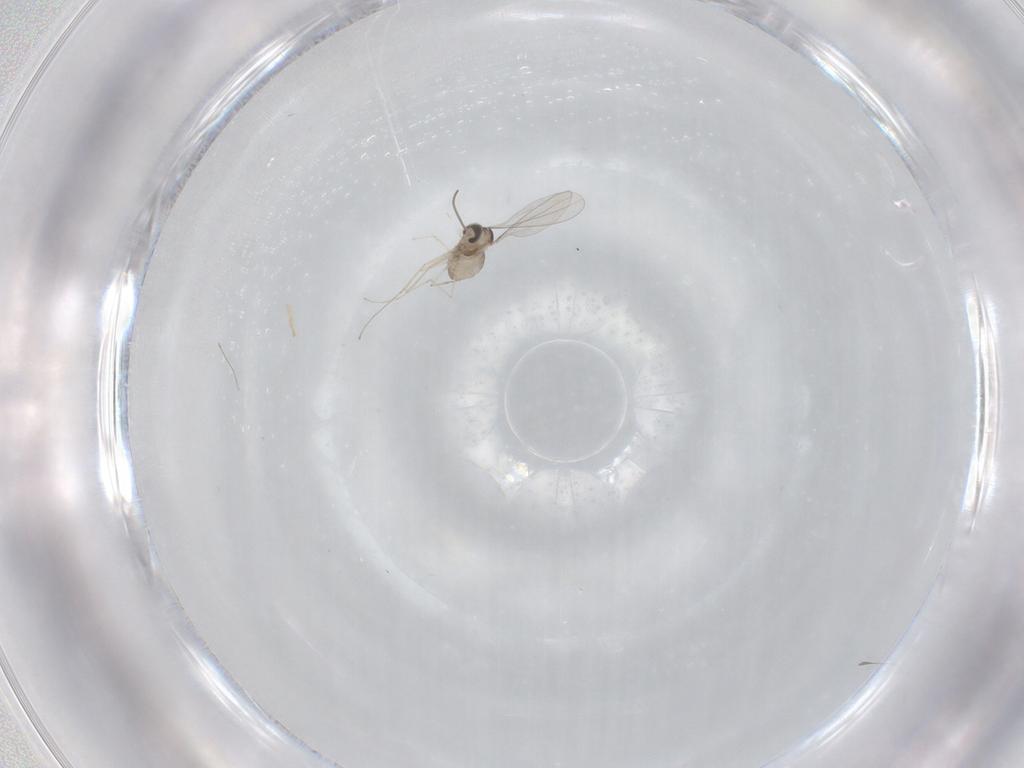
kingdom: Animalia
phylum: Arthropoda
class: Insecta
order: Diptera
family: Cecidomyiidae
